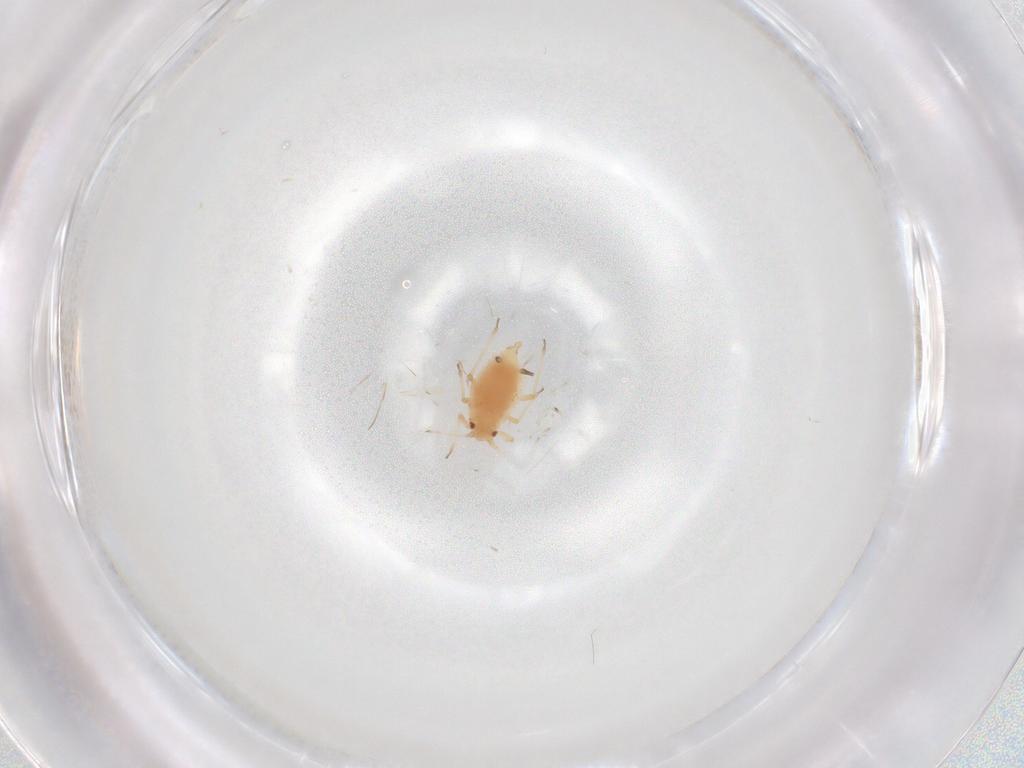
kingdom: Animalia
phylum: Arthropoda
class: Insecta
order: Hemiptera
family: Aphididae
